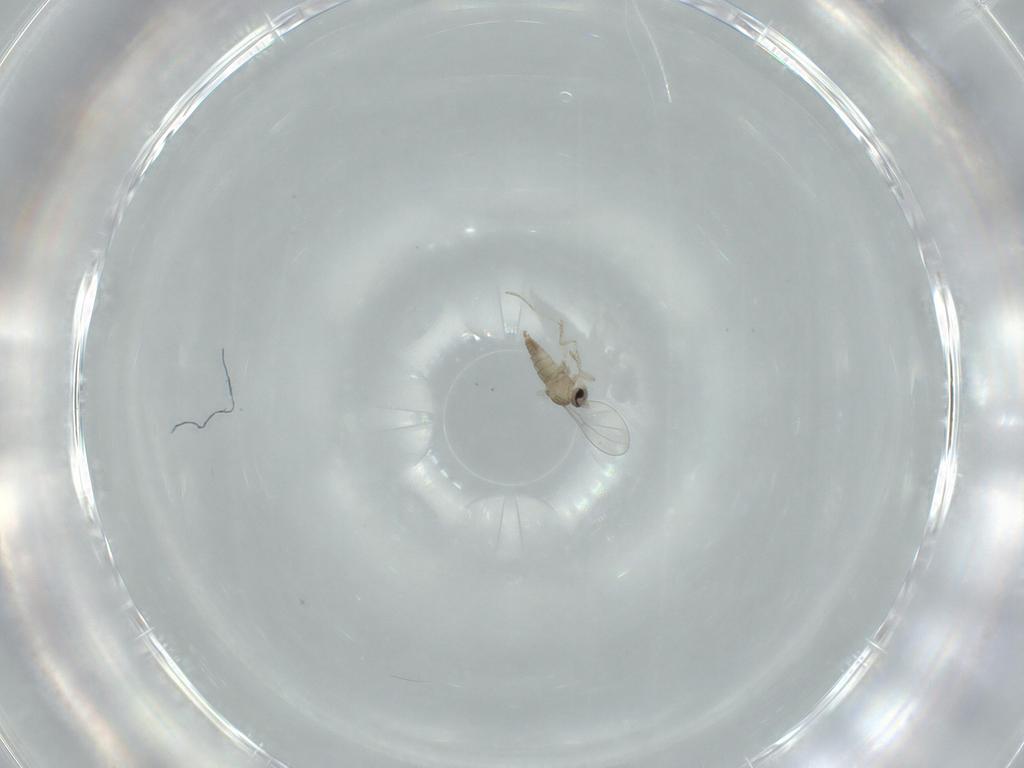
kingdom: Animalia
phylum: Arthropoda
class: Insecta
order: Diptera
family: Cecidomyiidae
